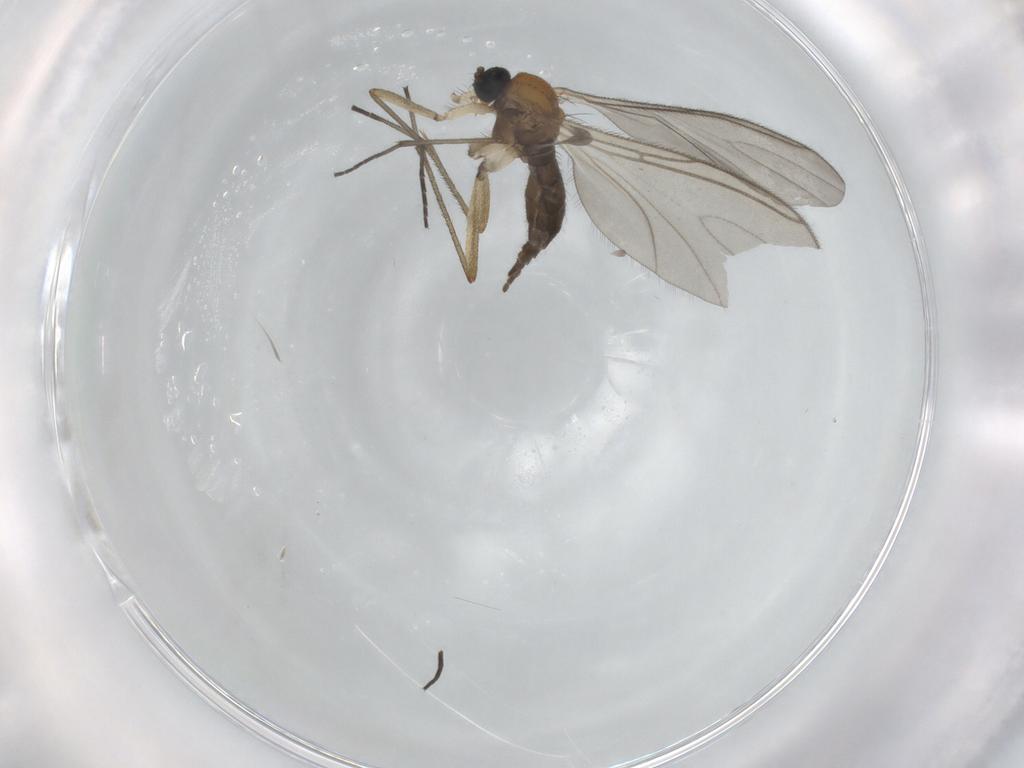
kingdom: Animalia
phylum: Arthropoda
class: Insecta
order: Diptera
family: Sciaridae
